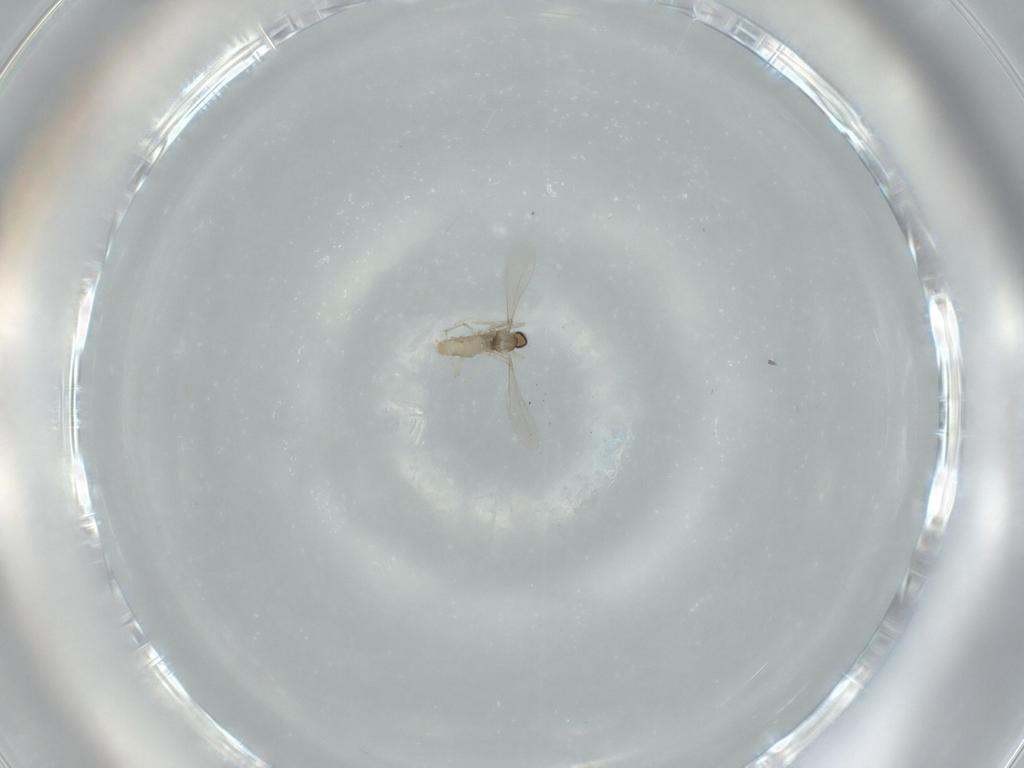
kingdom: Animalia
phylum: Arthropoda
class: Insecta
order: Diptera
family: Cecidomyiidae
